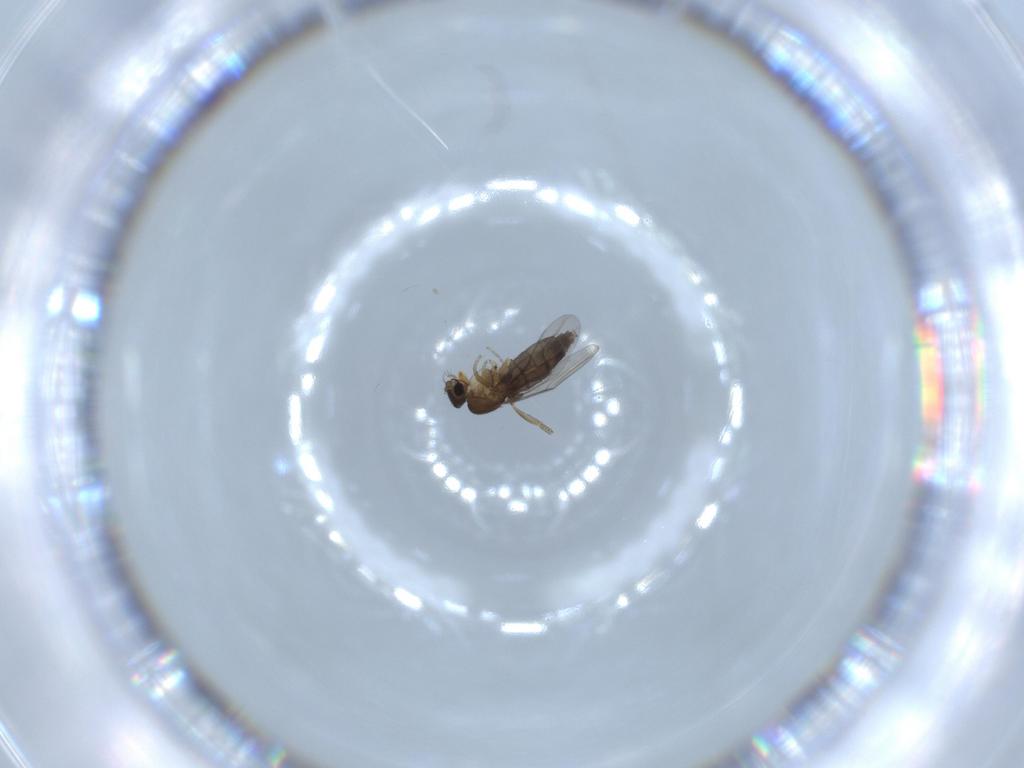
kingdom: Animalia
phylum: Arthropoda
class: Insecta
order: Diptera
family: Phoridae
